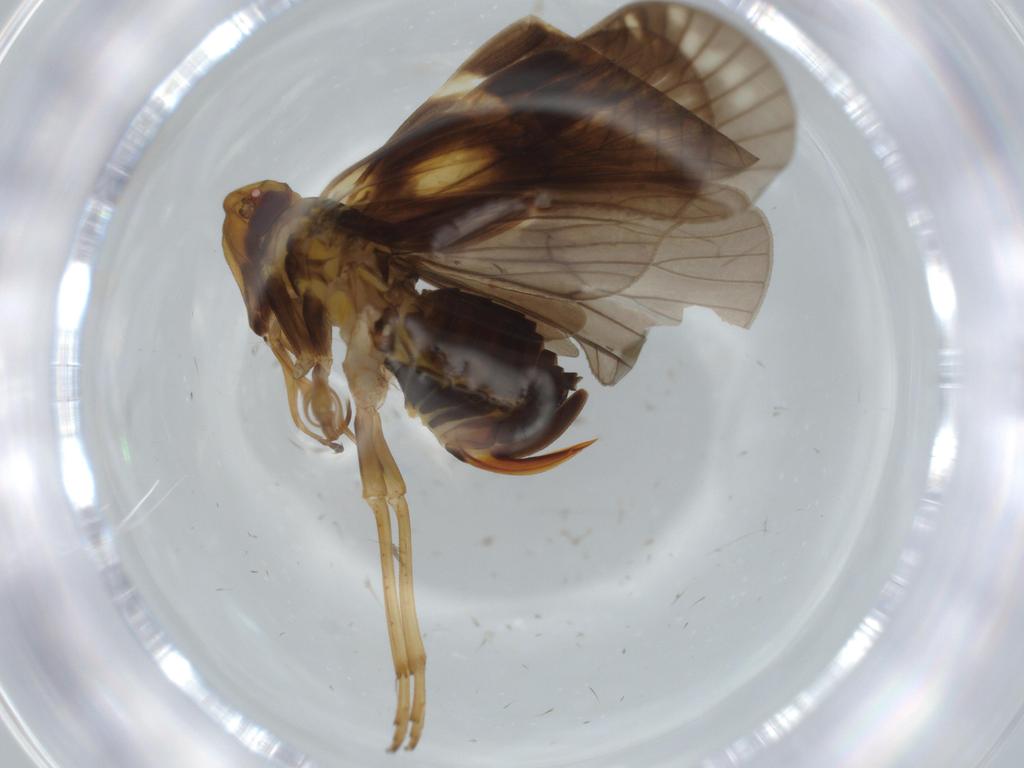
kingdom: Animalia
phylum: Arthropoda
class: Insecta
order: Hemiptera
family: Cixiidae
